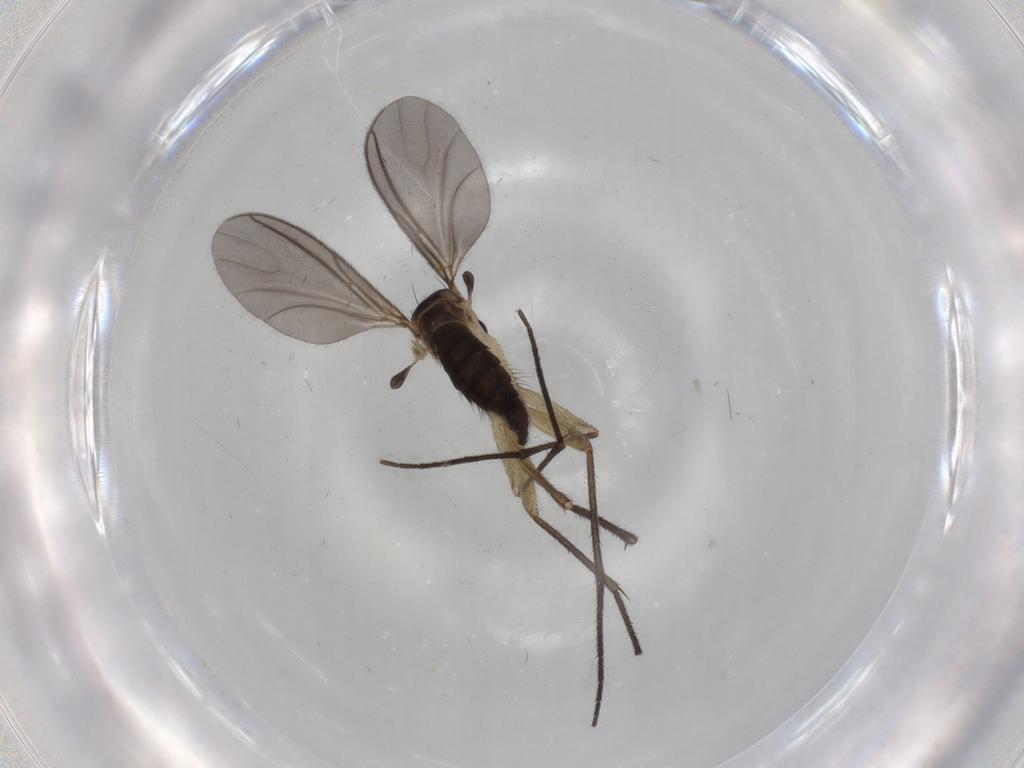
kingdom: Animalia
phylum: Arthropoda
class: Insecta
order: Diptera
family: Sciaridae
